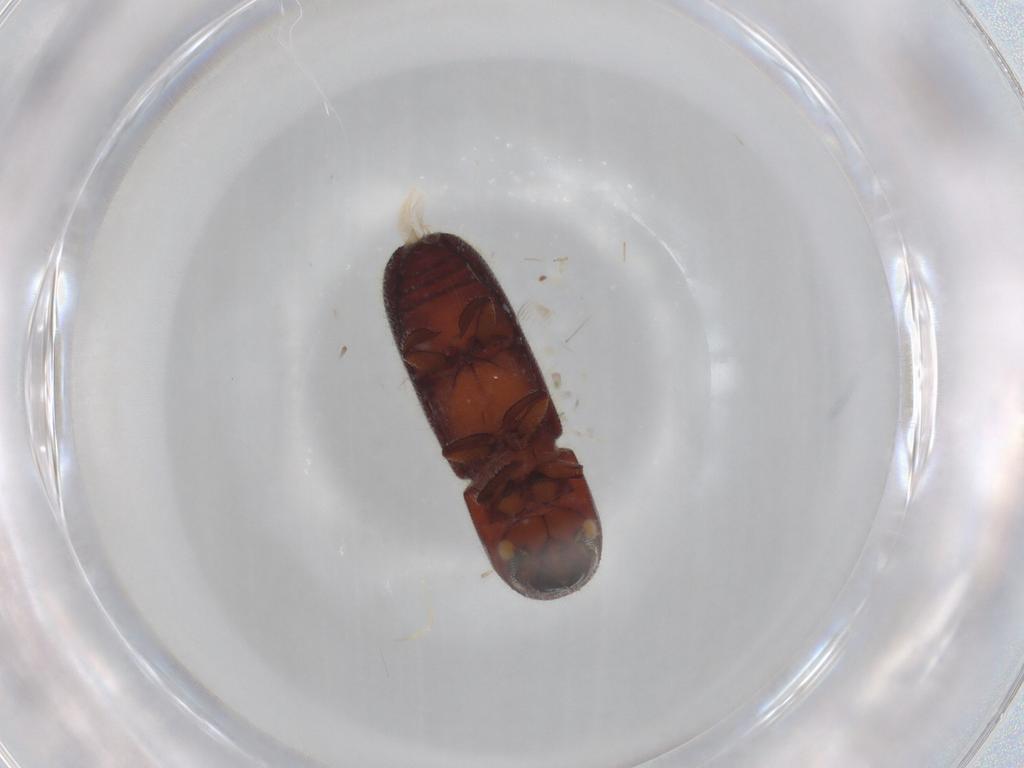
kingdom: Animalia
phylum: Arthropoda
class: Insecta
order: Coleoptera
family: Curculionidae
